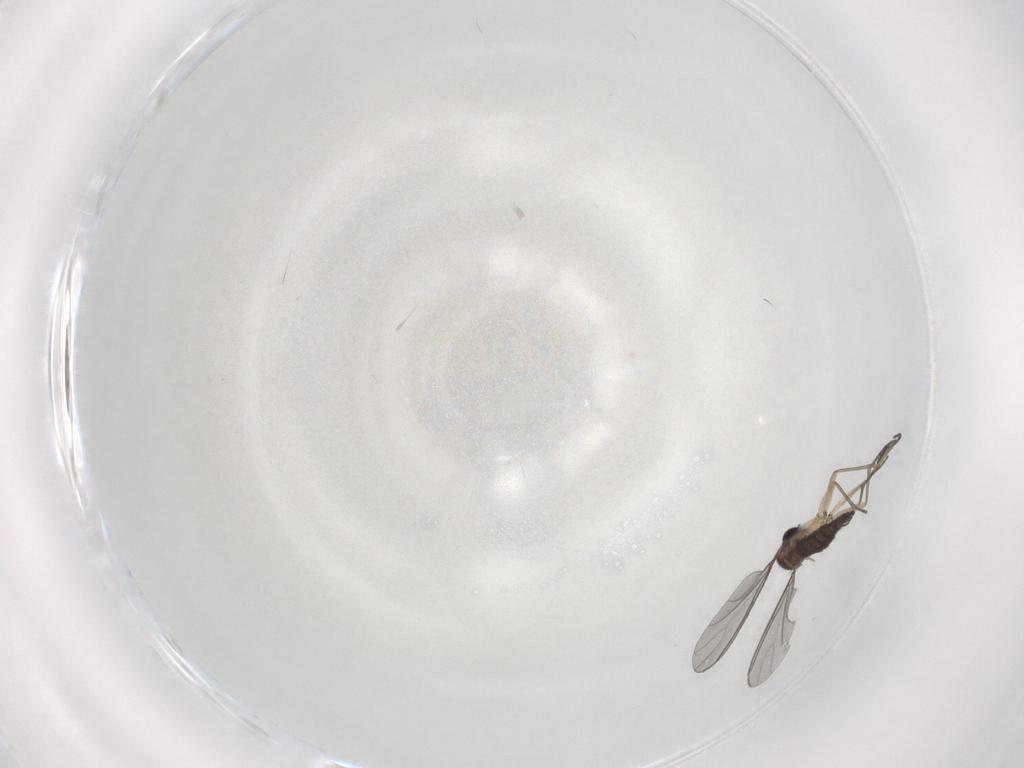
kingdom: Animalia
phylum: Arthropoda
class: Insecta
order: Diptera
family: Sciaridae
